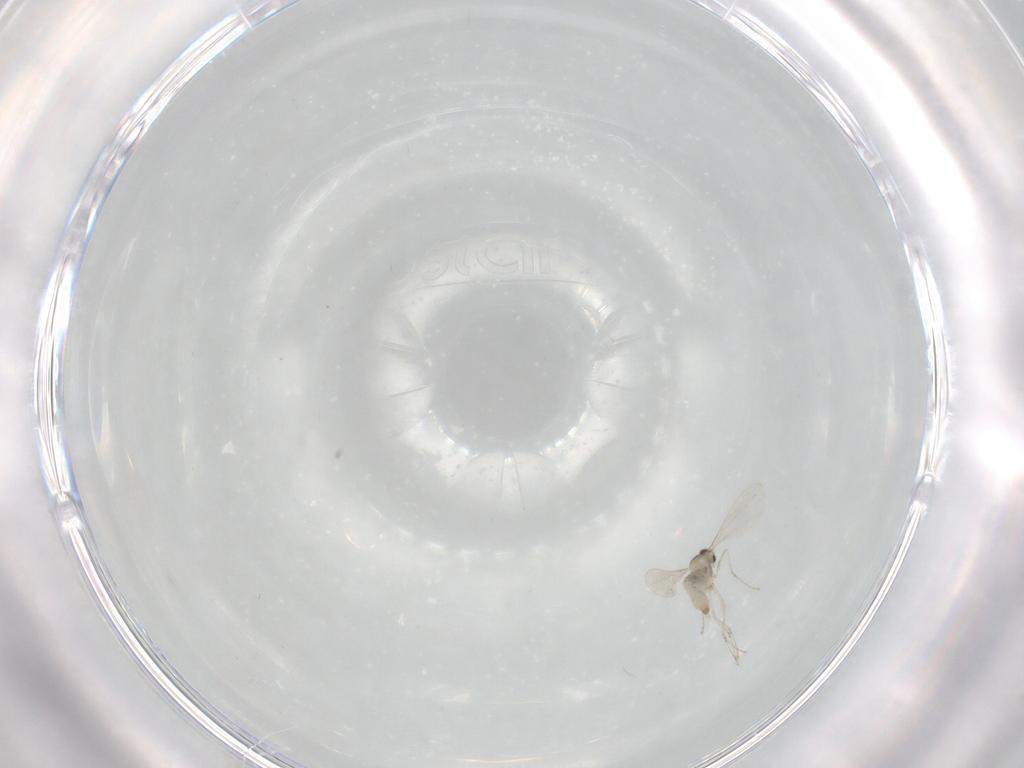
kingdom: Animalia
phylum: Arthropoda
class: Insecta
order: Diptera
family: Cecidomyiidae
